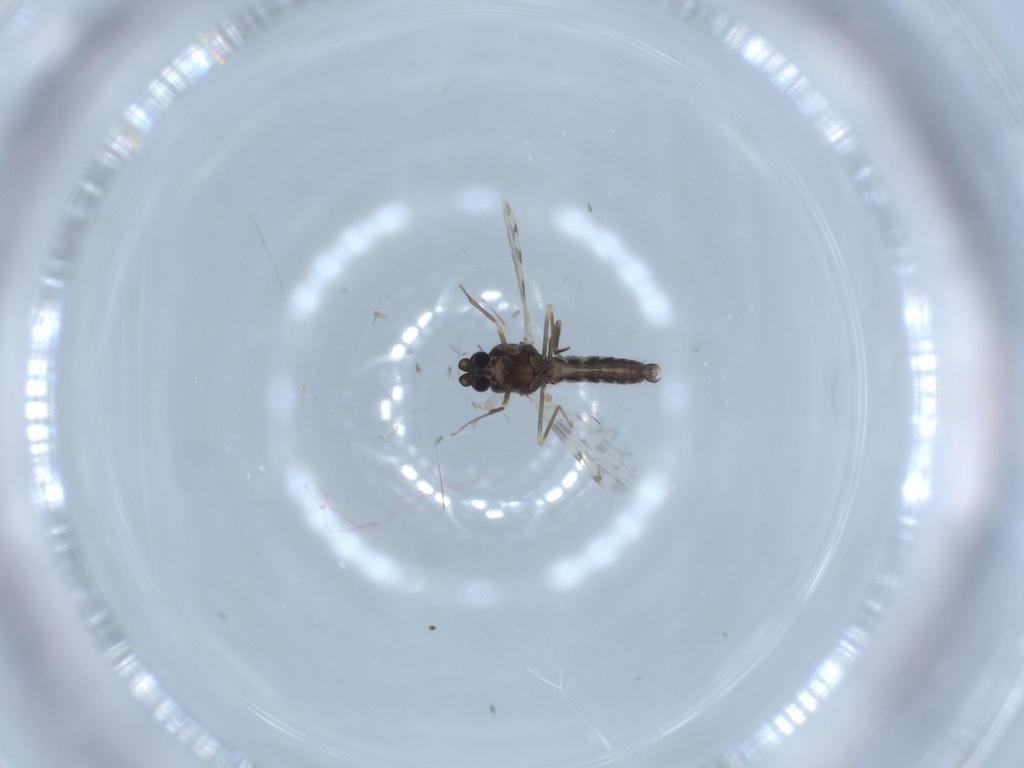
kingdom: Animalia
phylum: Arthropoda
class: Insecta
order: Diptera
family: Ceratopogonidae
